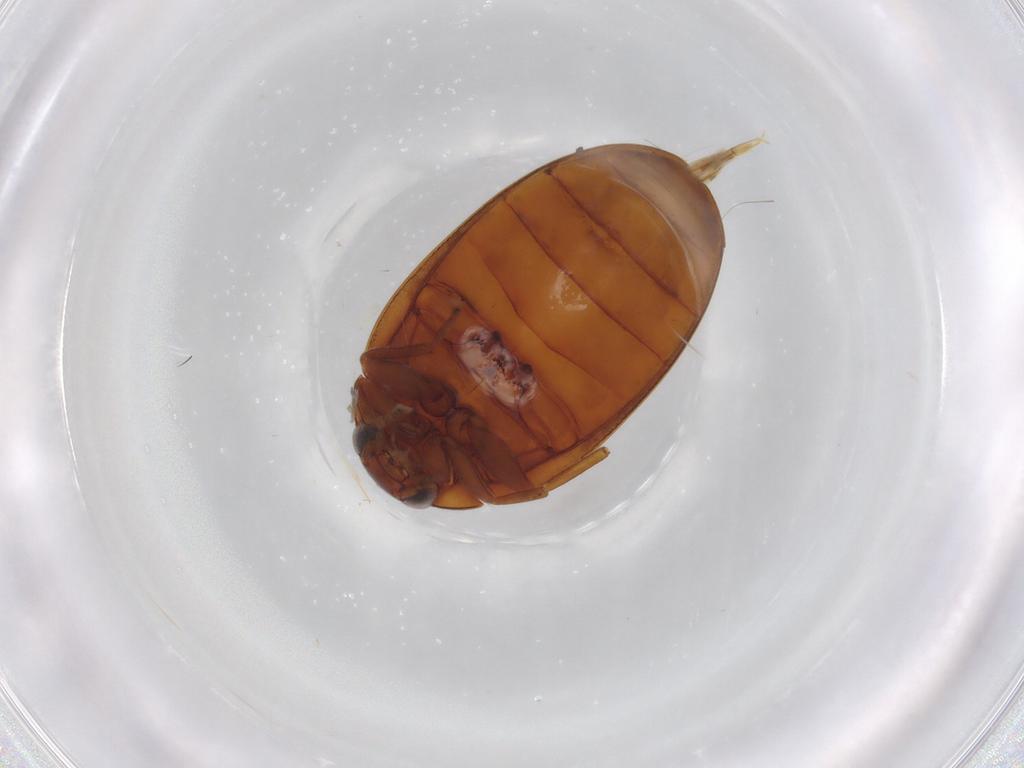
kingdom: Animalia
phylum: Arthropoda
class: Insecta
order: Coleoptera
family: Scirtidae
